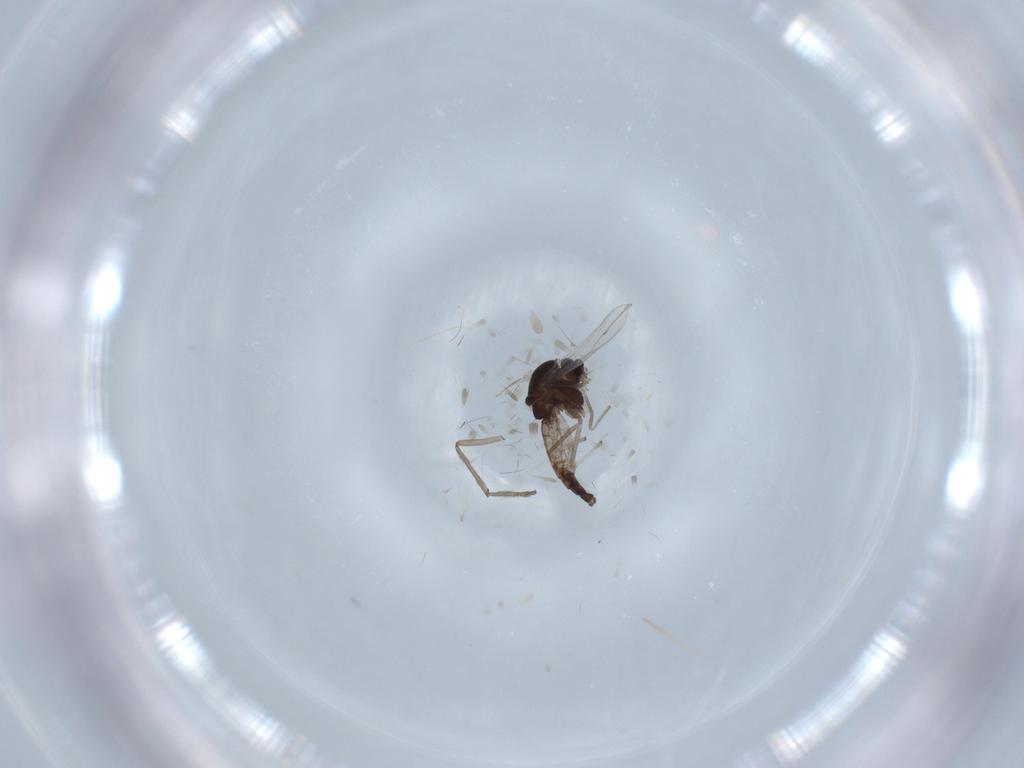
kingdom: Animalia
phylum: Arthropoda
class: Insecta
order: Diptera
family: Chironomidae
